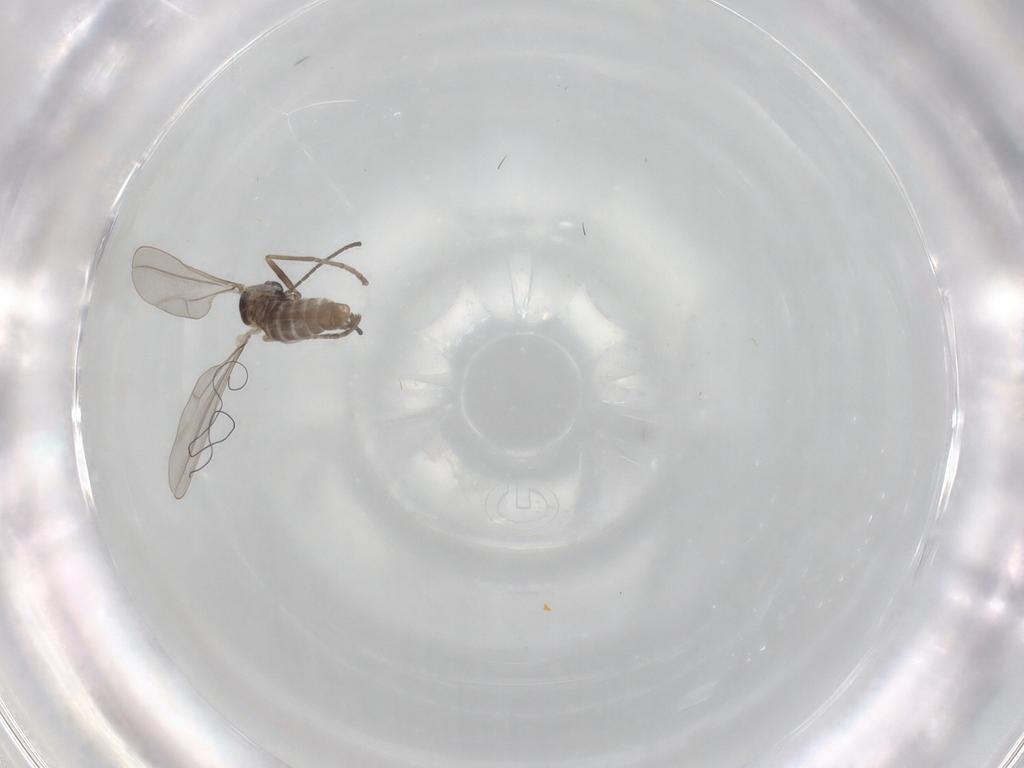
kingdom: Animalia
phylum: Arthropoda
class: Insecta
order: Diptera
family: Cecidomyiidae
